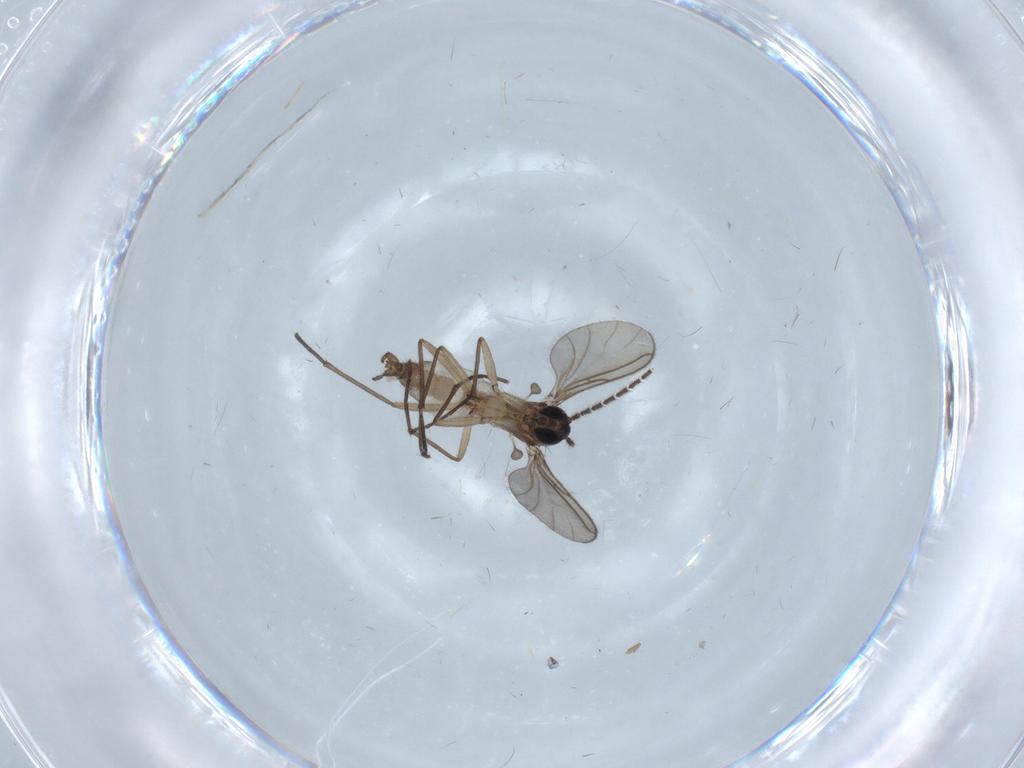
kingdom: Animalia
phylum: Arthropoda
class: Insecta
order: Diptera
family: Sciaridae
